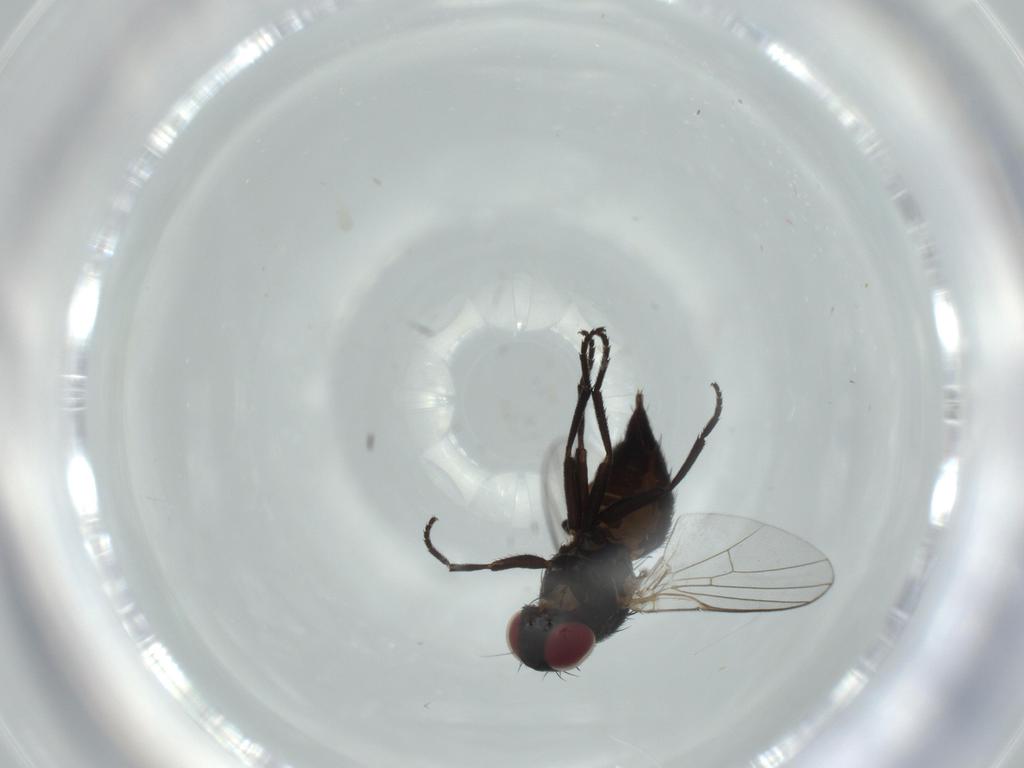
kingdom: Animalia
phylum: Arthropoda
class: Insecta
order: Diptera
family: Agromyzidae
